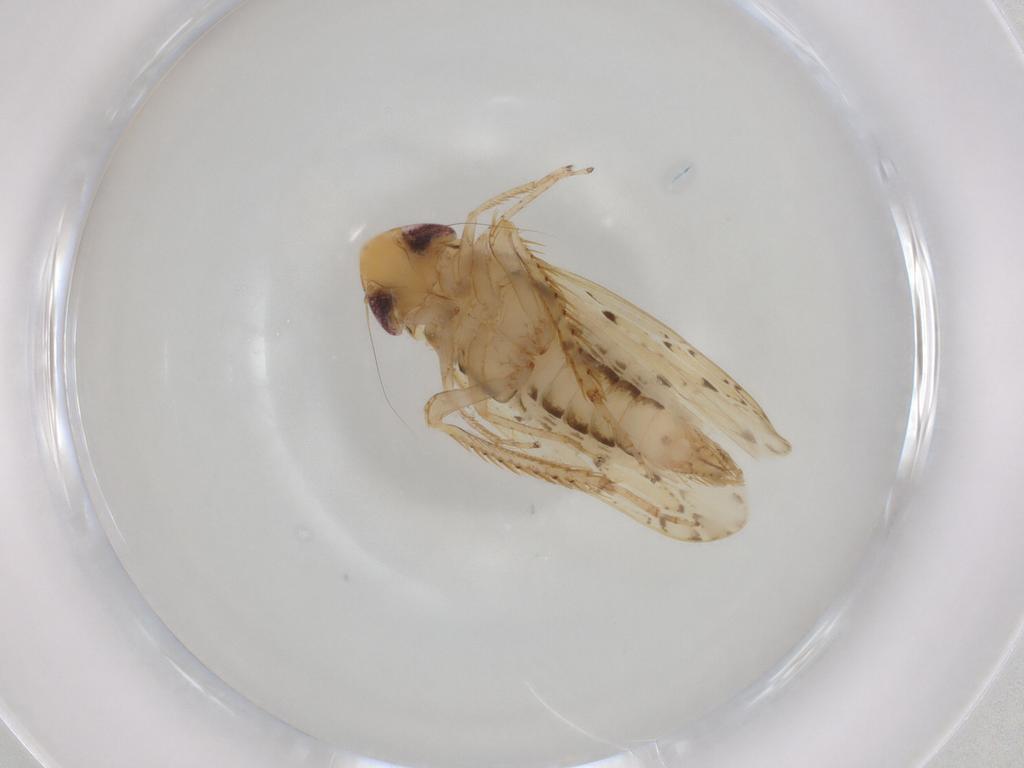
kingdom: Animalia
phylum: Arthropoda
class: Insecta
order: Hemiptera
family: Cicadellidae
